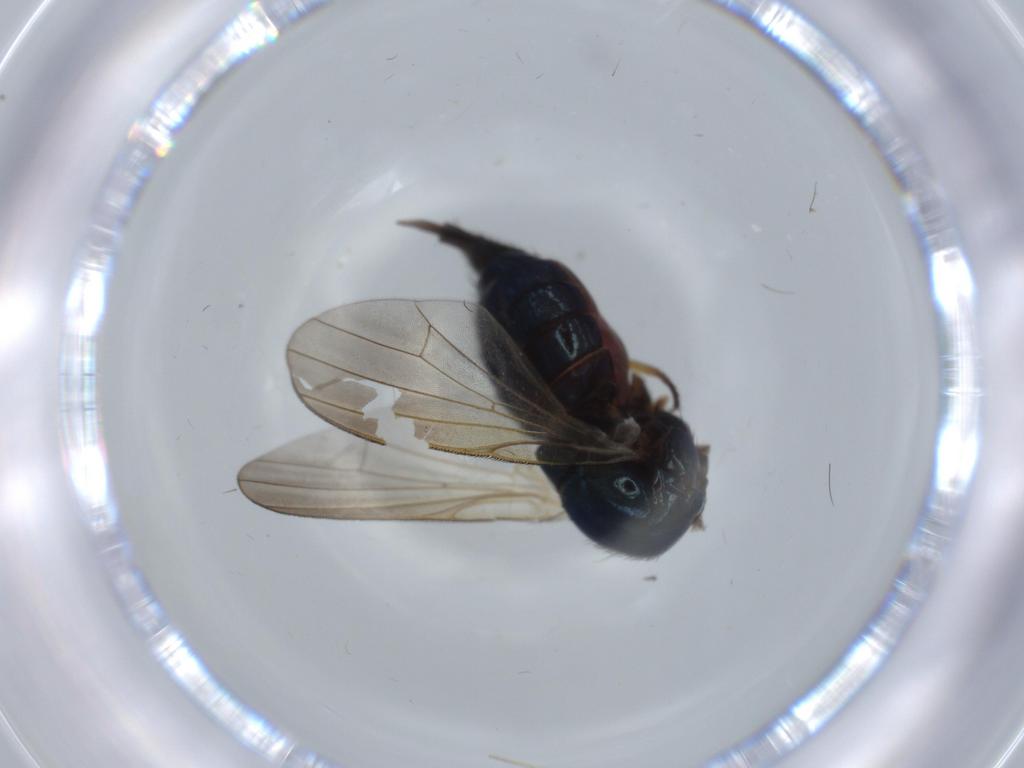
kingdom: Animalia
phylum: Arthropoda
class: Insecta
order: Diptera
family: Lonchaeidae
